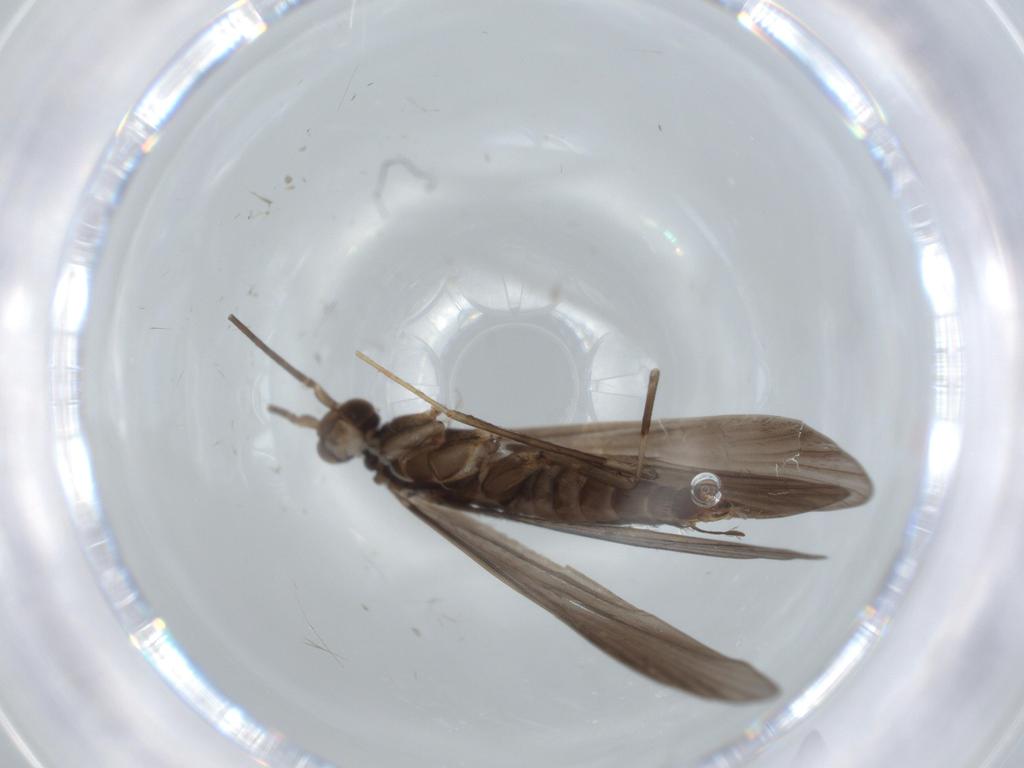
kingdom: Animalia
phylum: Arthropoda
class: Insecta
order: Trichoptera
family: Xiphocentronidae
